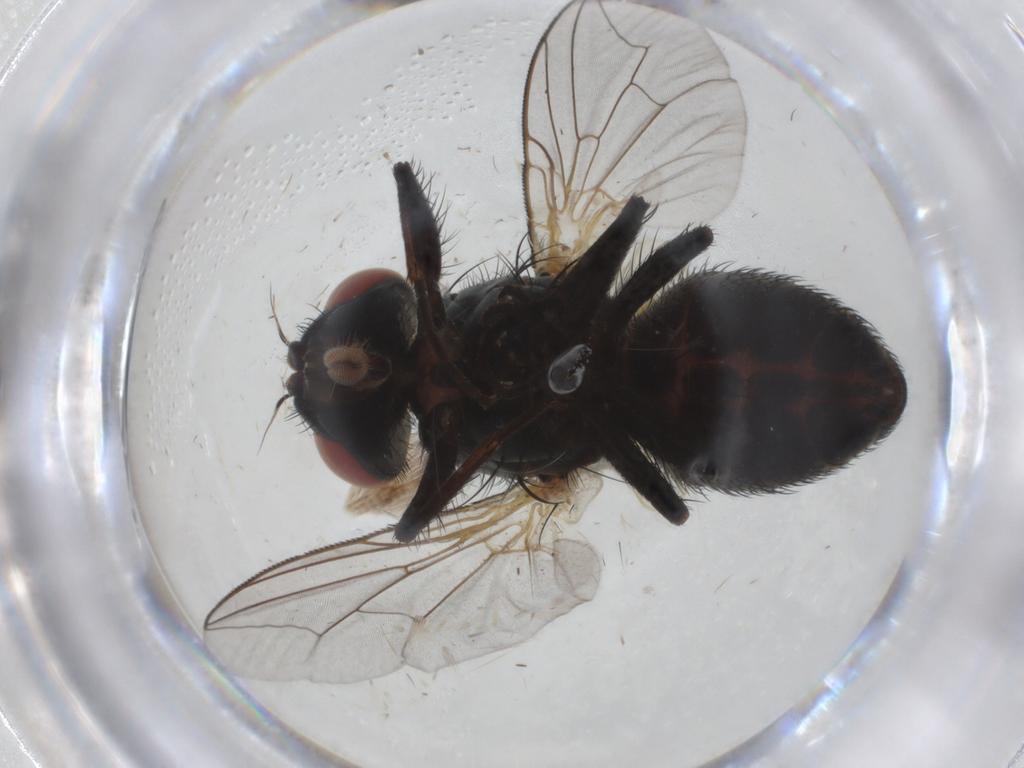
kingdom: Animalia
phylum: Arthropoda
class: Insecta
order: Diptera
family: Sarcophagidae
